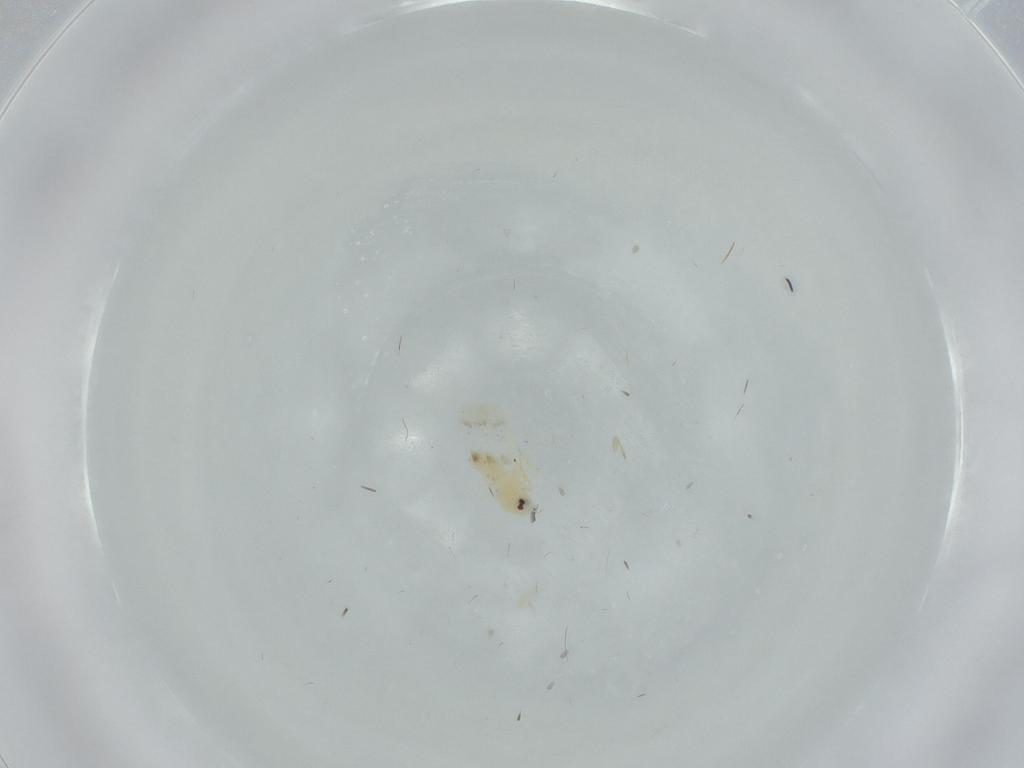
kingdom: Animalia
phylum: Arthropoda
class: Insecta
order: Hemiptera
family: Aleyrodidae
